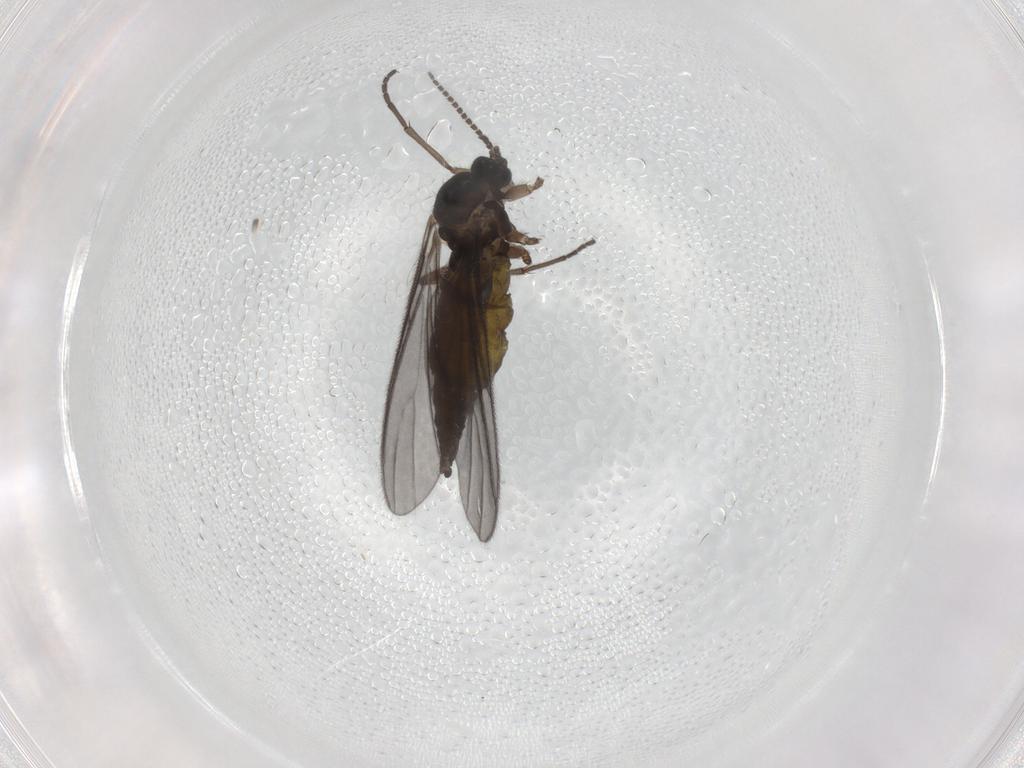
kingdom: Animalia
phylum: Arthropoda
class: Insecta
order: Diptera
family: Sciaridae
